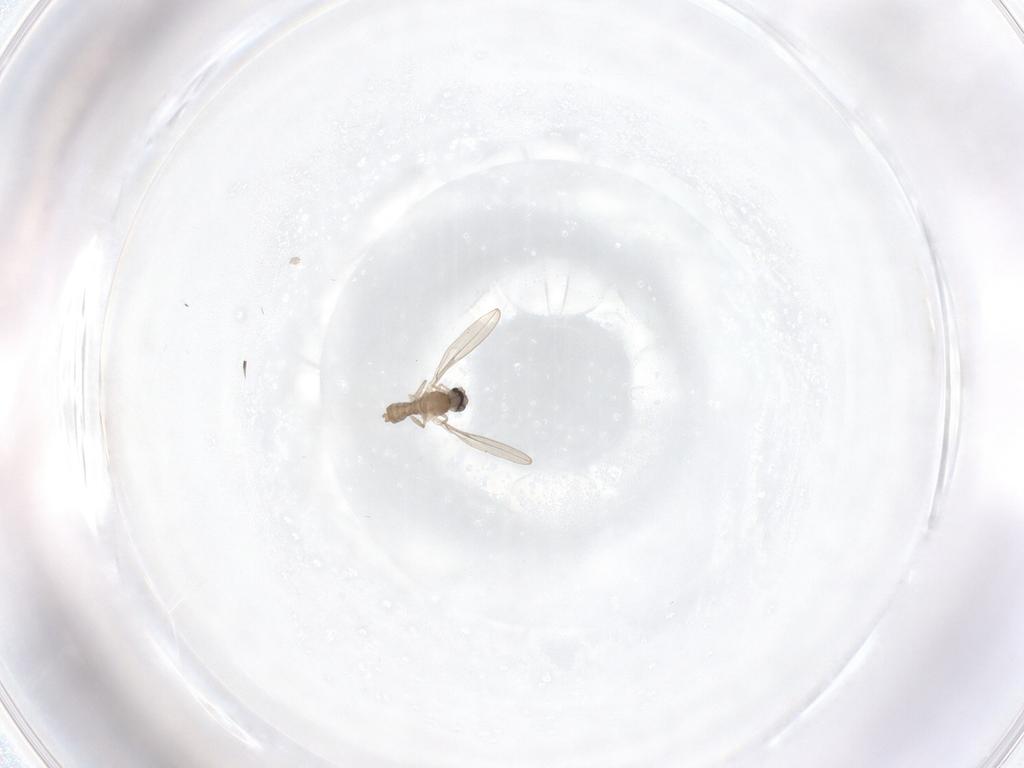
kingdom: Animalia
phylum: Arthropoda
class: Insecta
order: Diptera
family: Cecidomyiidae
